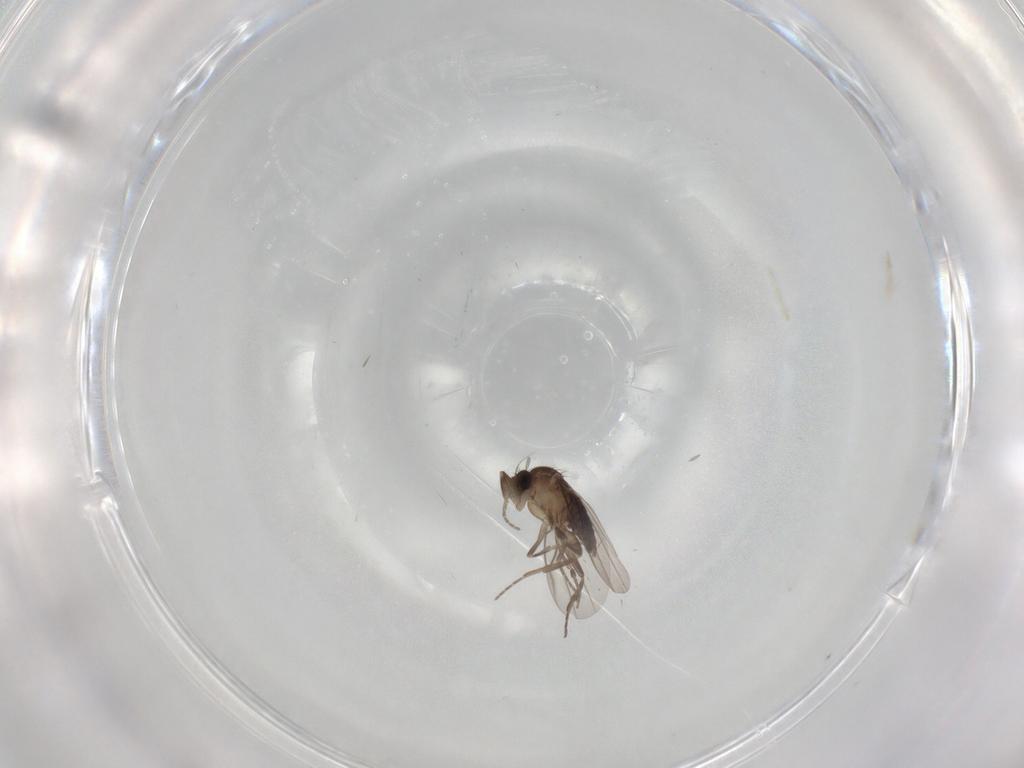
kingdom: Animalia
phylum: Arthropoda
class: Insecta
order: Diptera
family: Phoridae
